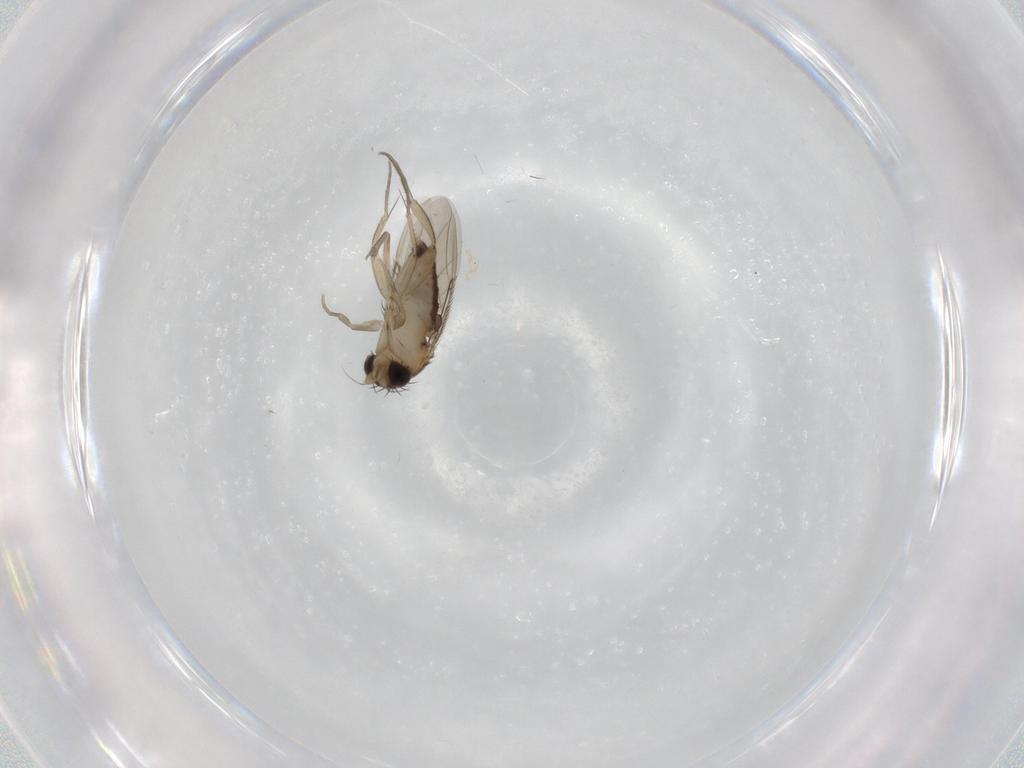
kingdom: Animalia
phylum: Arthropoda
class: Insecta
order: Diptera
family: Phoridae
